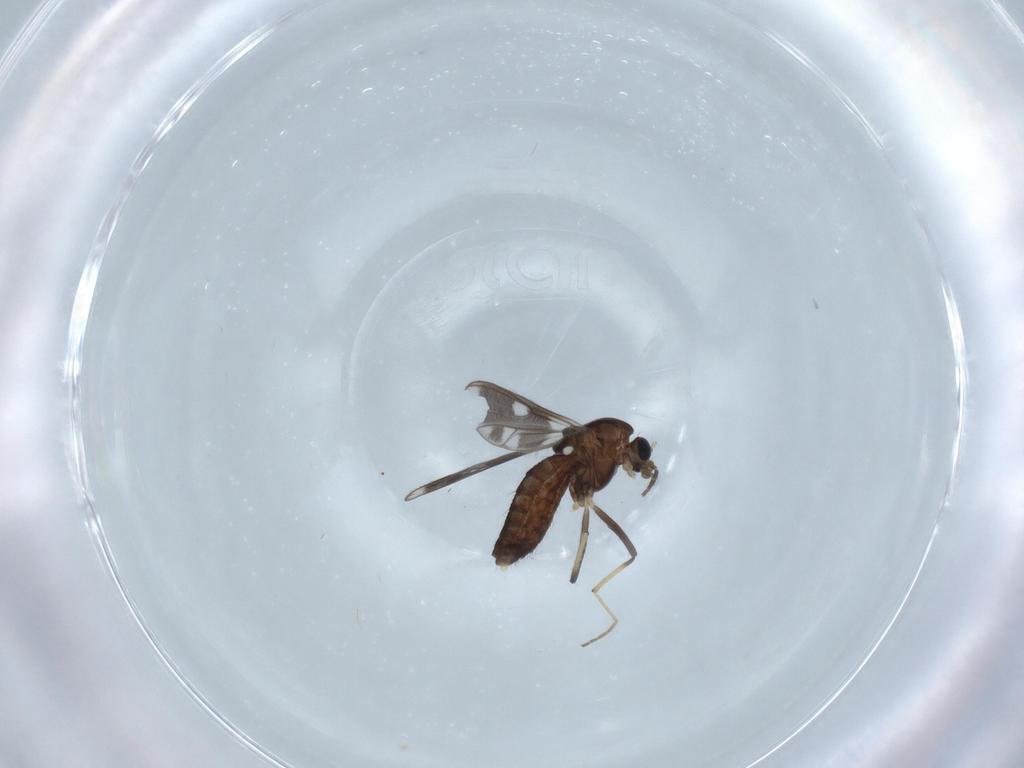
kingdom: Animalia
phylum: Arthropoda
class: Insecta
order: Diptera
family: Chironomidae
